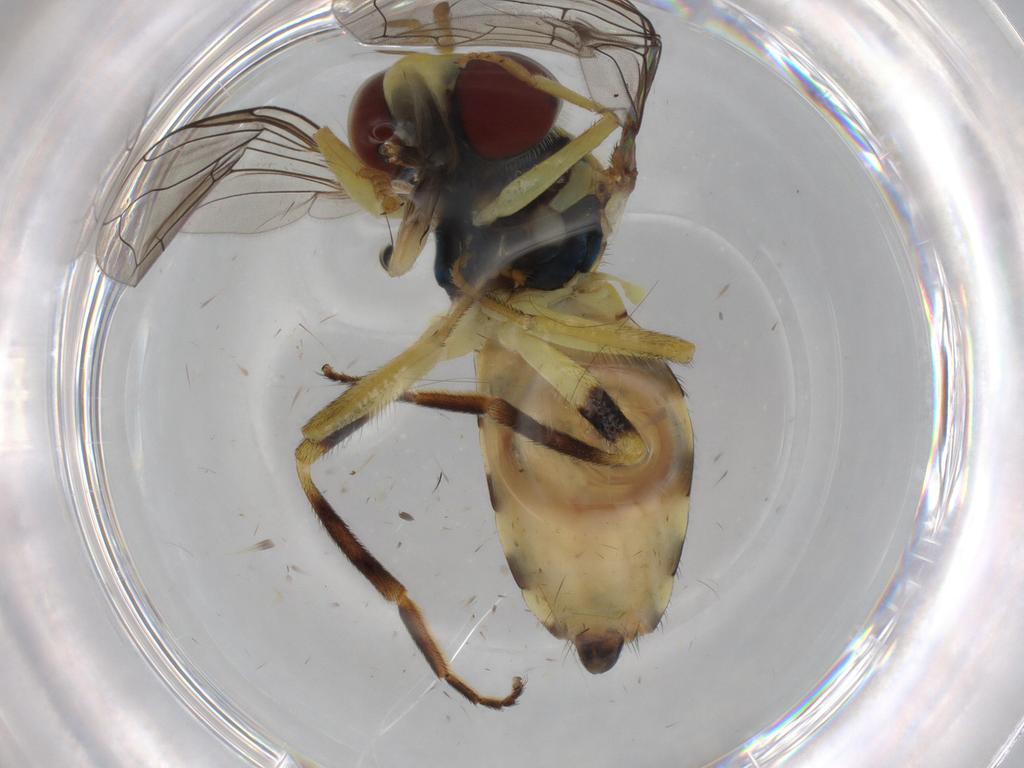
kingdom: Animalia
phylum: Arthropoda
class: Insecta
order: Diptera
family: Syrphidae
